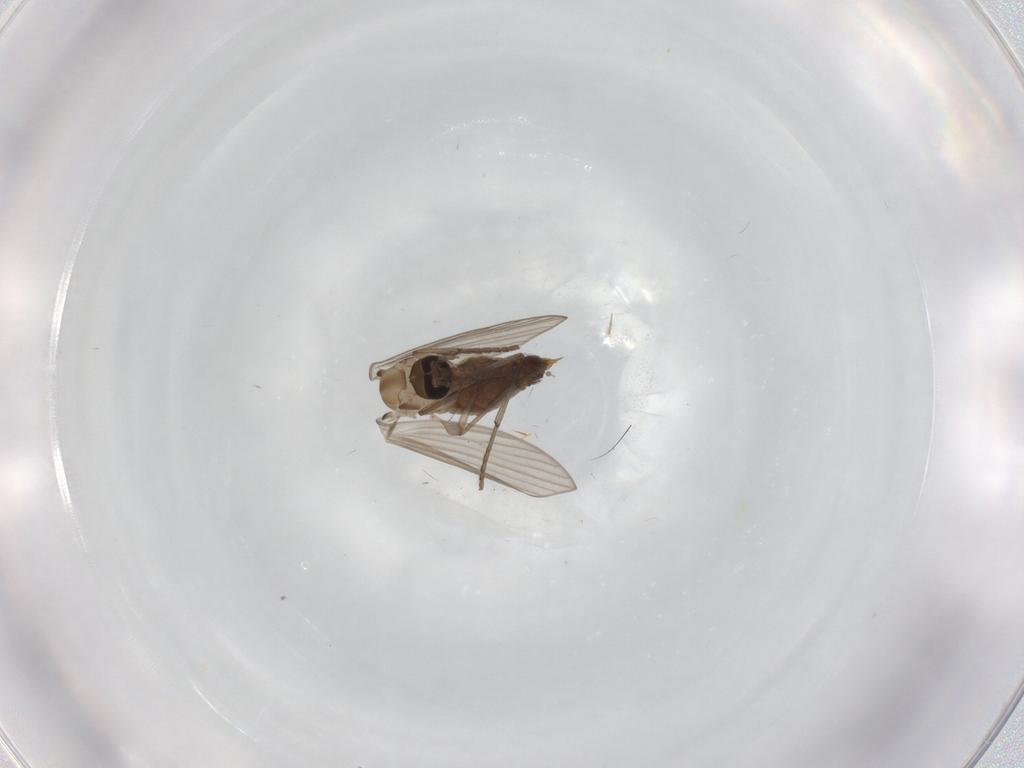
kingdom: Animalia
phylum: Arthropoda
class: Insecta
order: Diptera
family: Psychodidae
